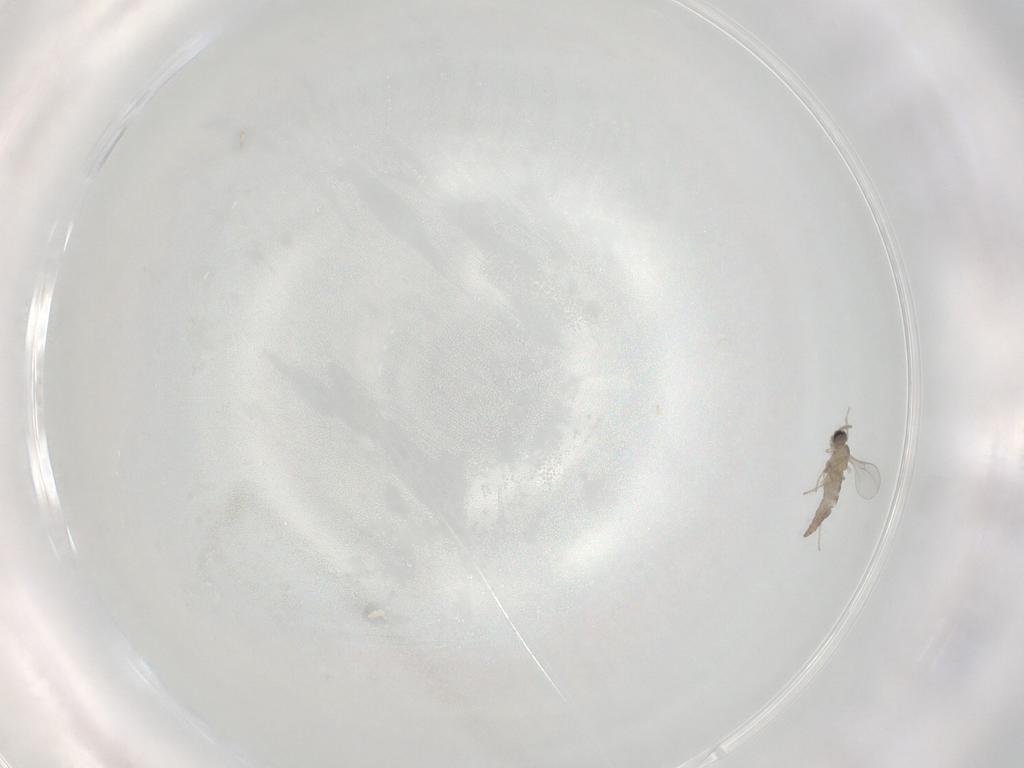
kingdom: Animalia
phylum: Arthropoda
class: Insecta
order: Diptera
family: Cecidomyiidae
